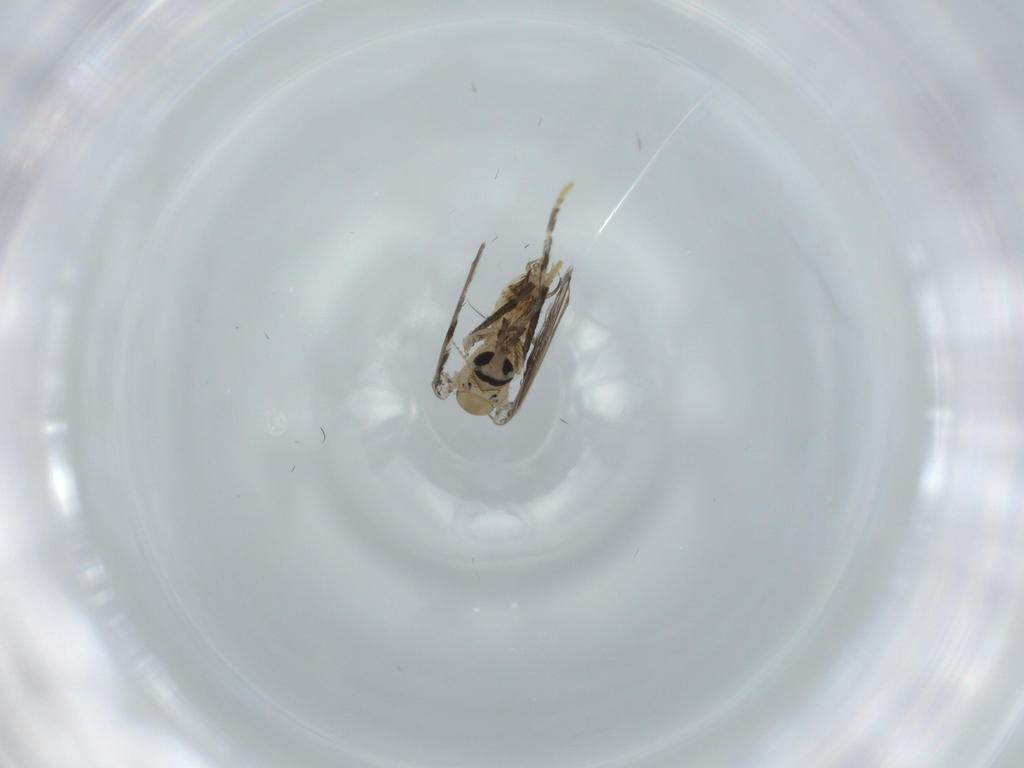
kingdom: Animalia
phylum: Arthropoda
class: Insecta
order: Diptera
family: Scatopsidae
